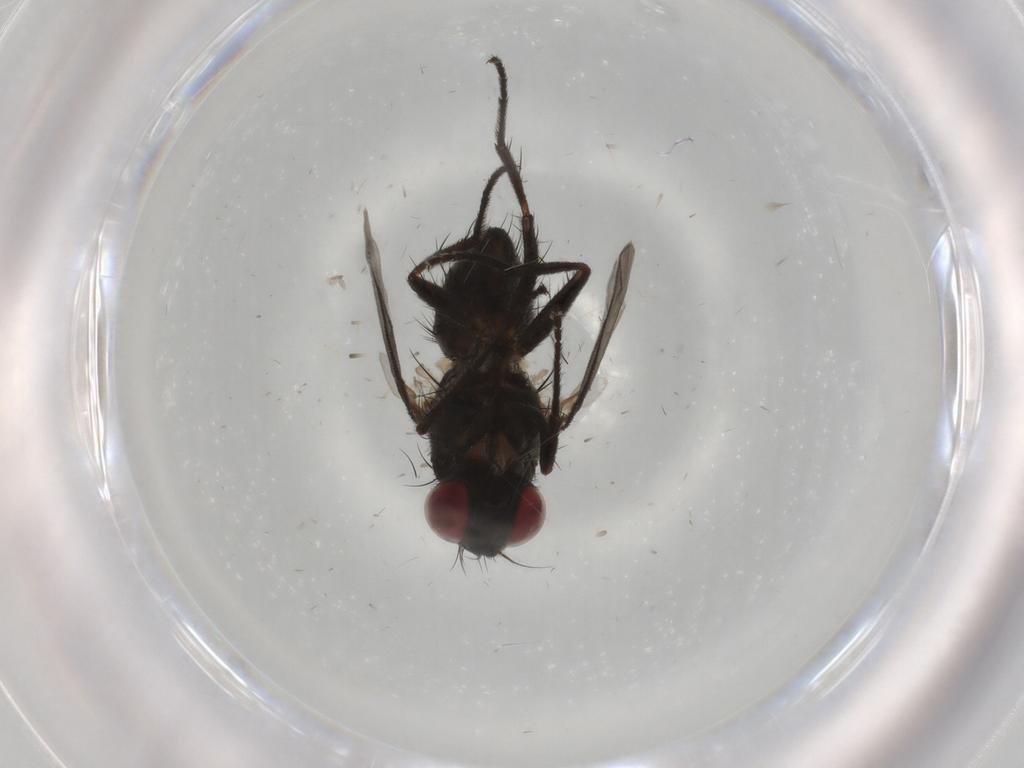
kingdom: Animalia
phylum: Arthropoda
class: Insecta
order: Diptera
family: Muscidae
